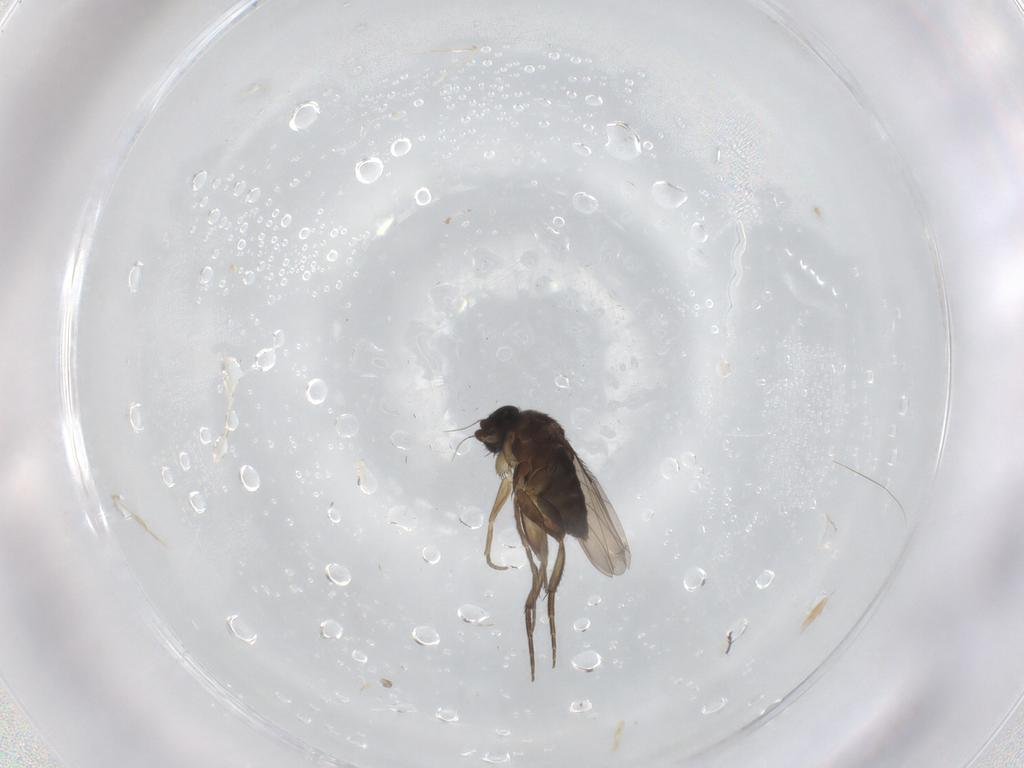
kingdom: Animalia
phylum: Arthropoda
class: Insecta
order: Diptera
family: Phoridae
